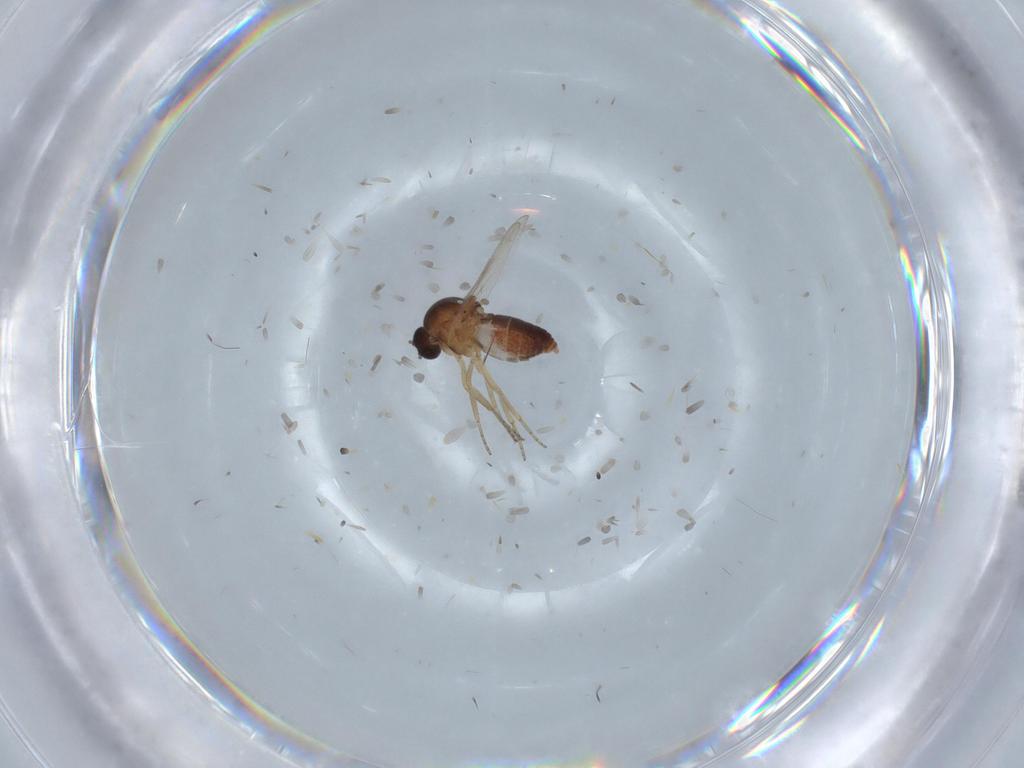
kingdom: Animalia
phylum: Arthropoda
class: Insecta
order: Diptera
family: Ceratopogonidae
